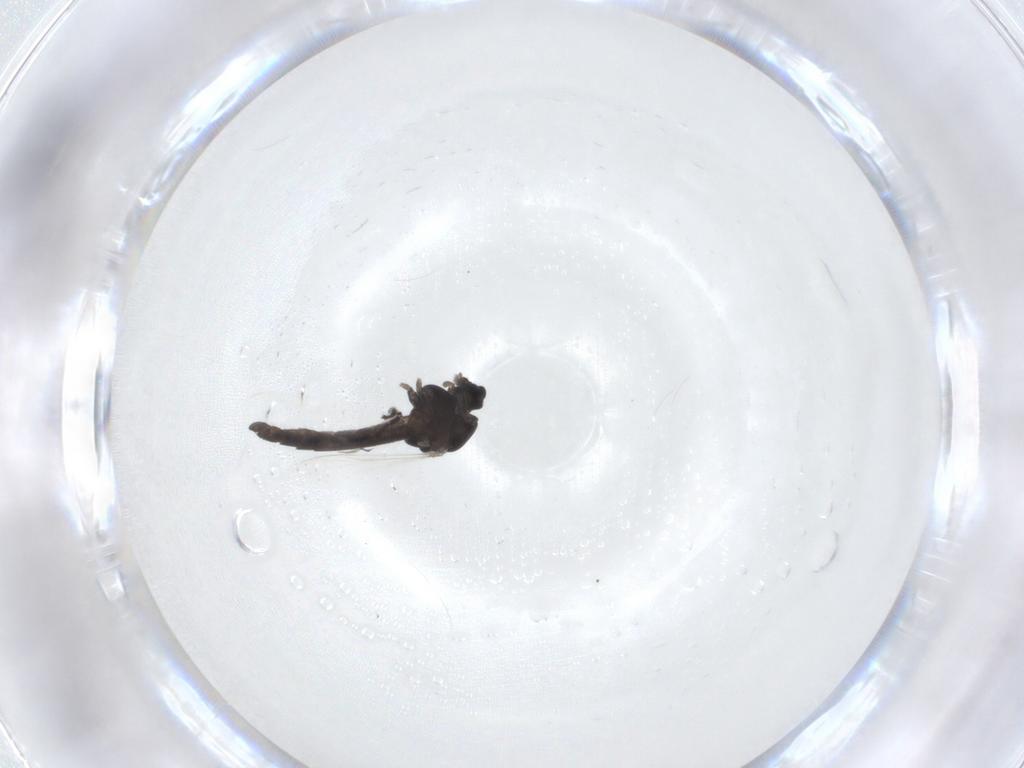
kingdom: Animalia
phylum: Arthropoda
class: Insecta
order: Diptera
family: Chironomidae
